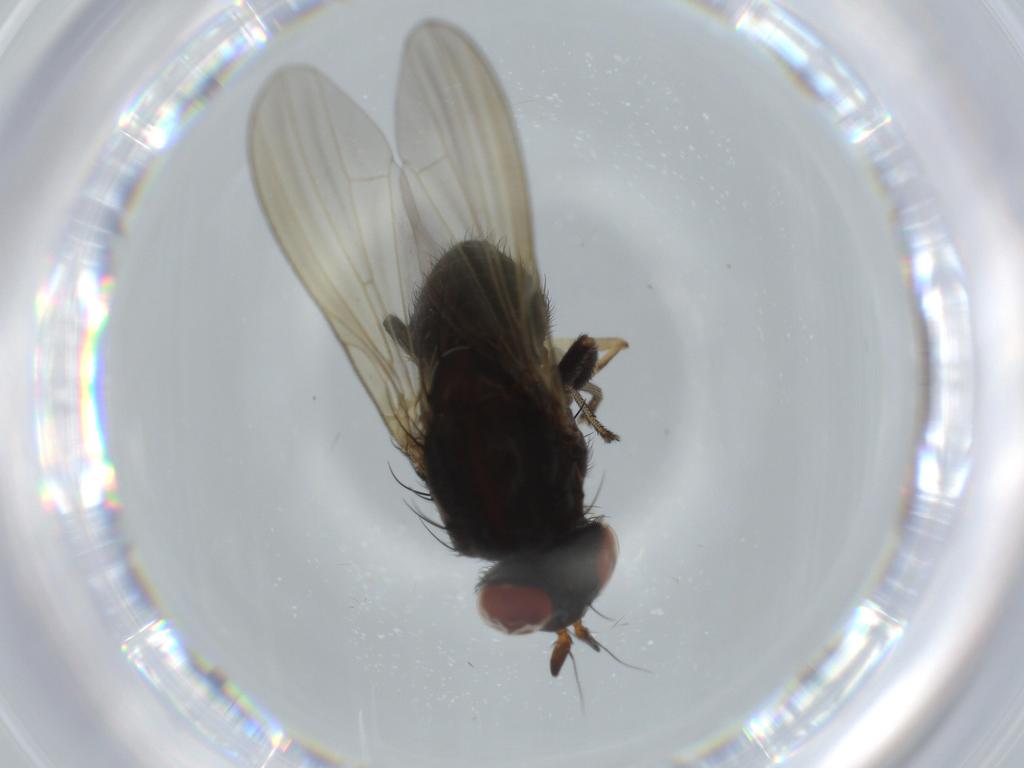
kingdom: Animalia
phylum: Arthropoda
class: Insecta
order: Diptera
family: Lauxaniidae
